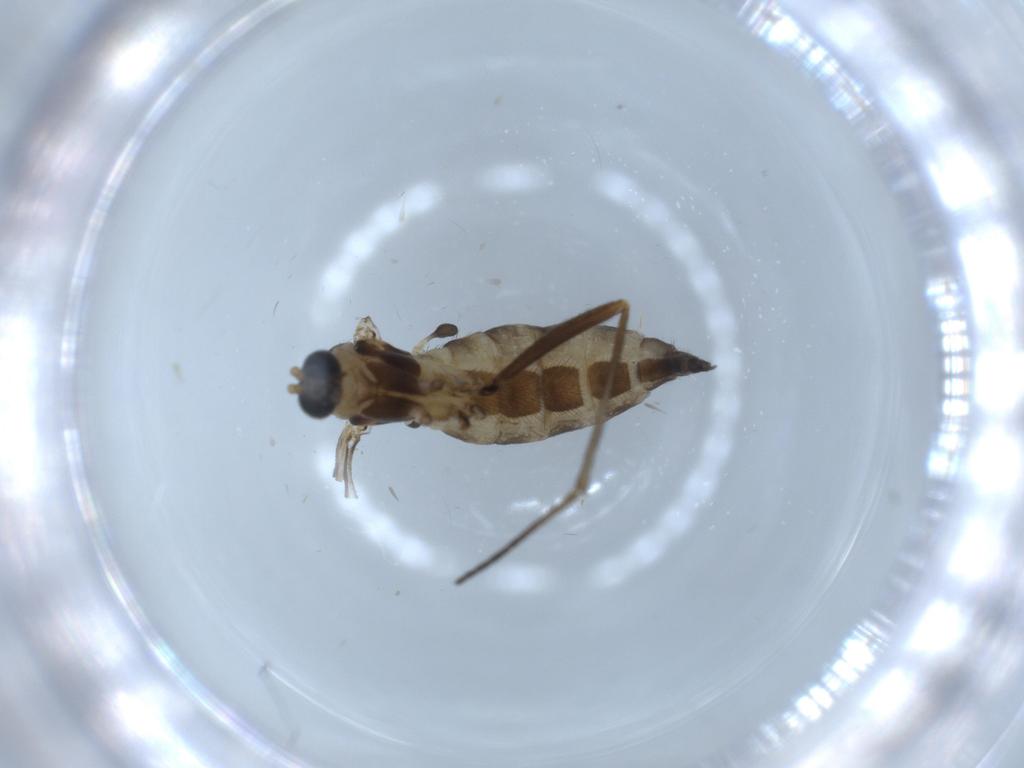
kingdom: Animalia
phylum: Arthropoda
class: Insecta
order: Diptera
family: Sciaridae
